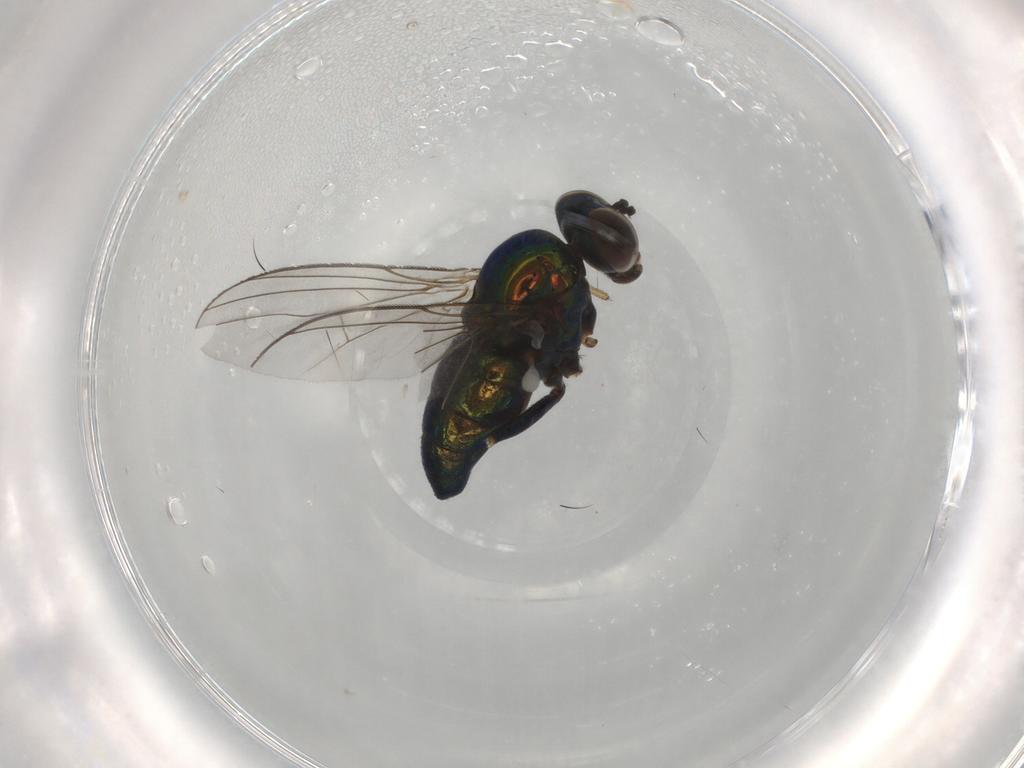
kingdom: Animalia
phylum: Arthropoda
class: Insecta
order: Diptera
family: Dolichopodidae
